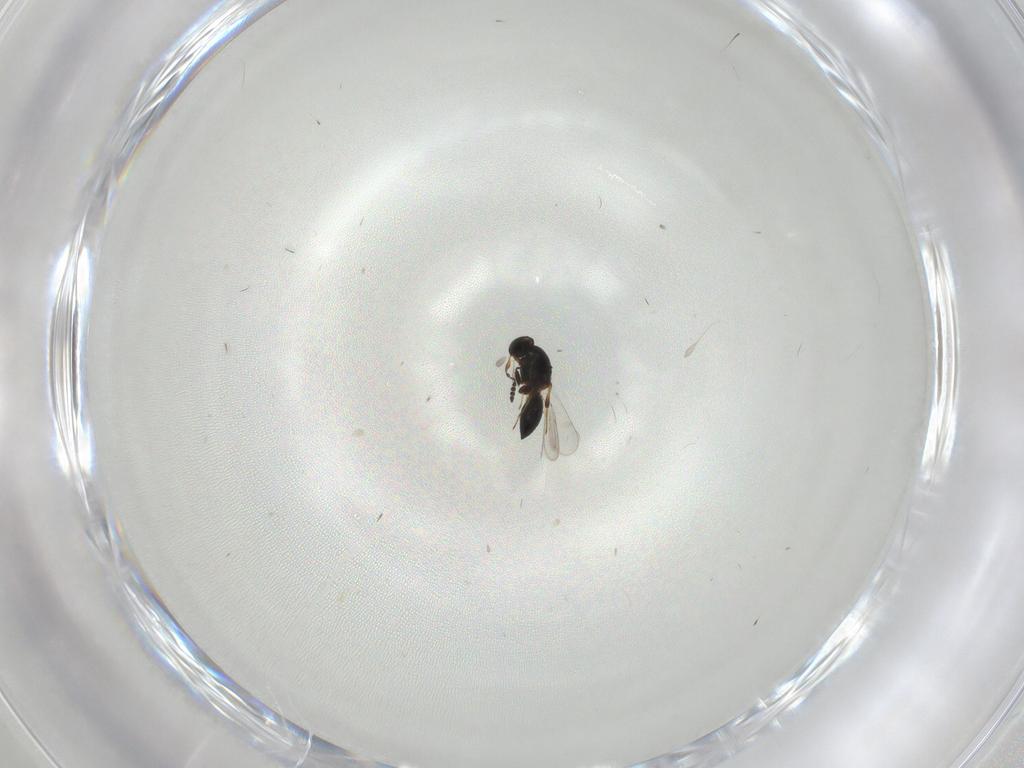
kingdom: Animalia
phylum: Arthropoda
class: Insecta
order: Hymenoptera
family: Platygastridae
